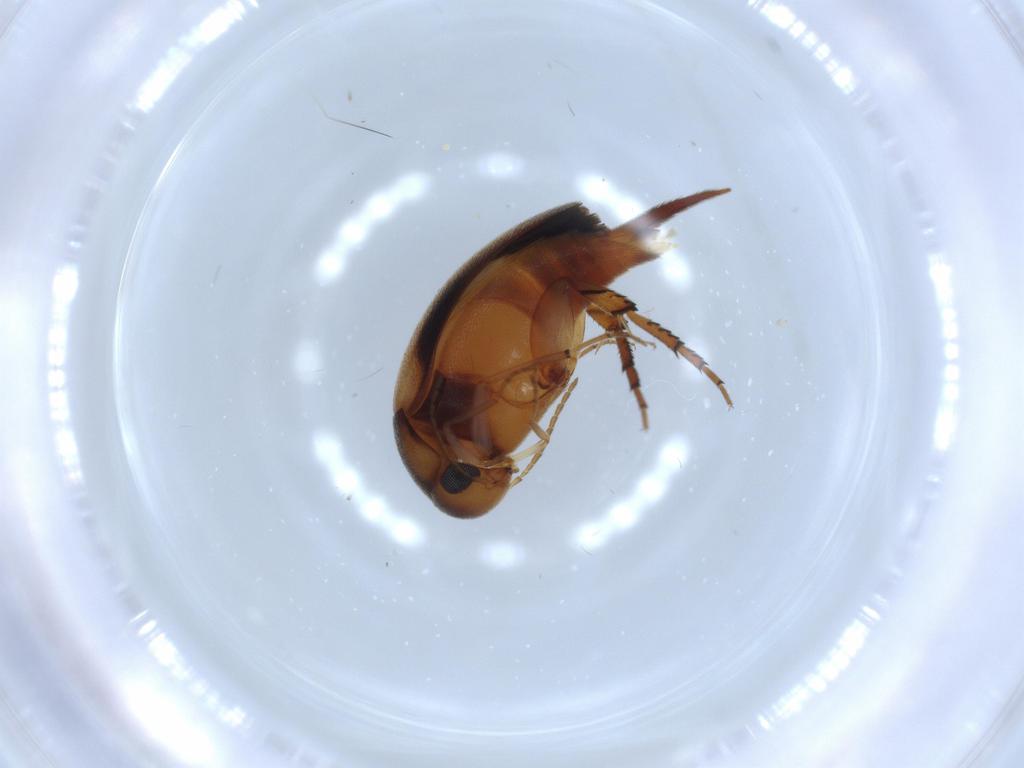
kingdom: Animalia
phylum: Arthropoda
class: Insecta
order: Coleoptera
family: Mordellidae
